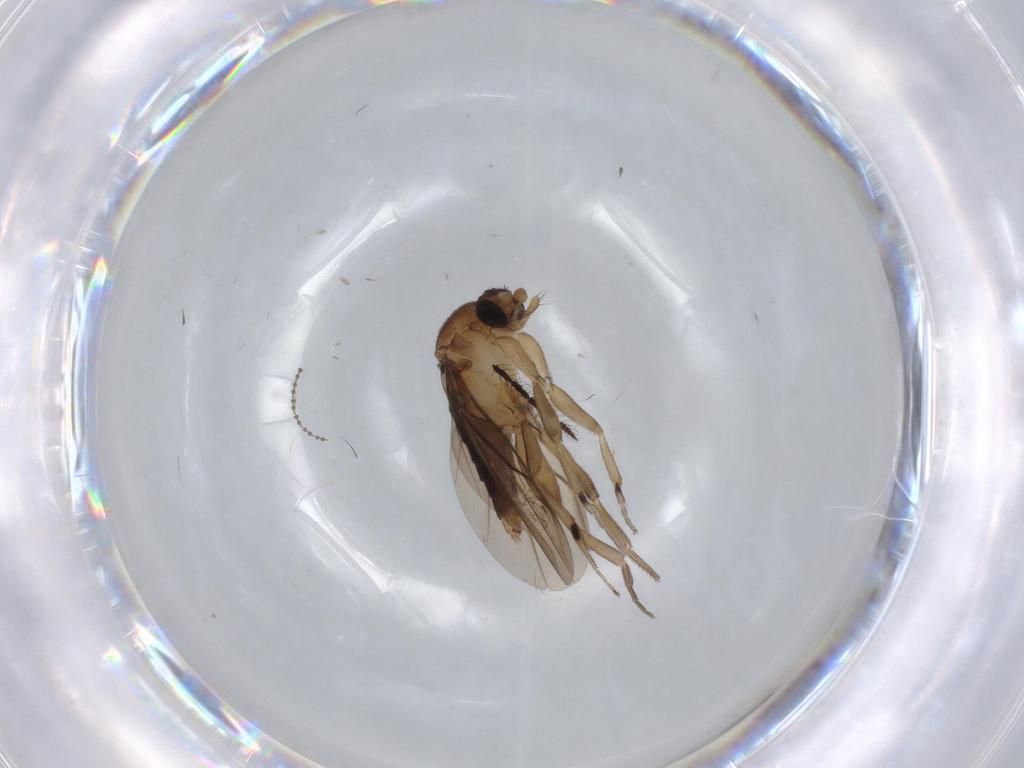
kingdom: Animalia
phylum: Arthropoda
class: Insecta
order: Diptera
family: Phoridae
